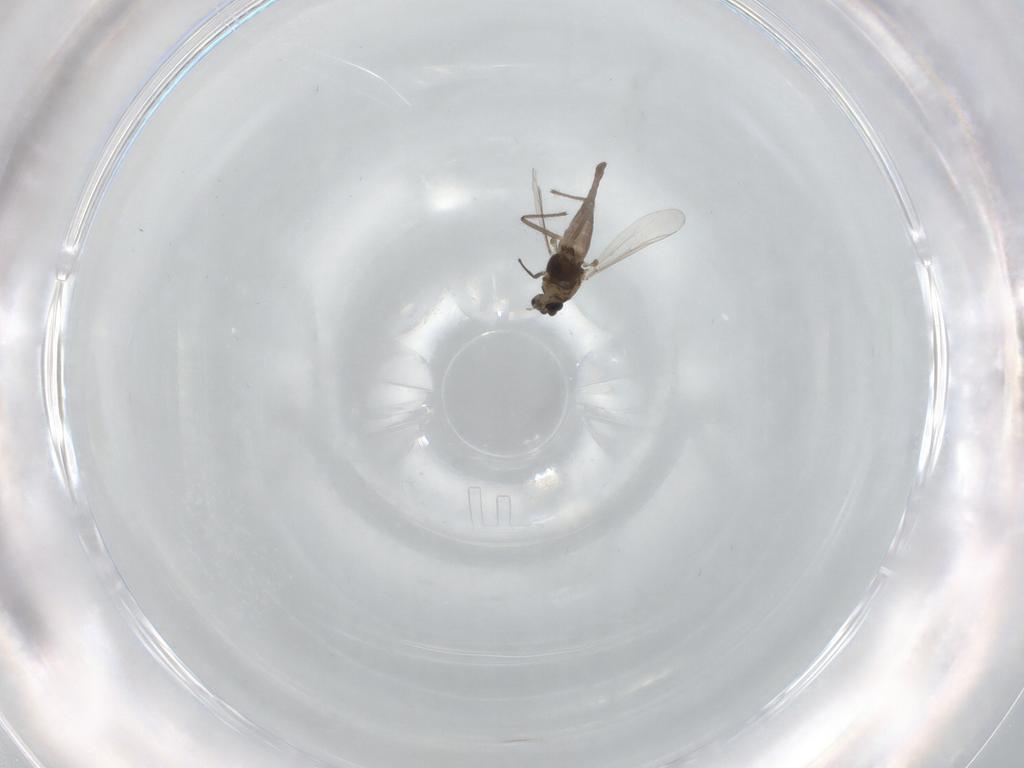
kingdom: Animalia
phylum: Arthropoda
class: Insecta
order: Diptera
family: Chironomidae
